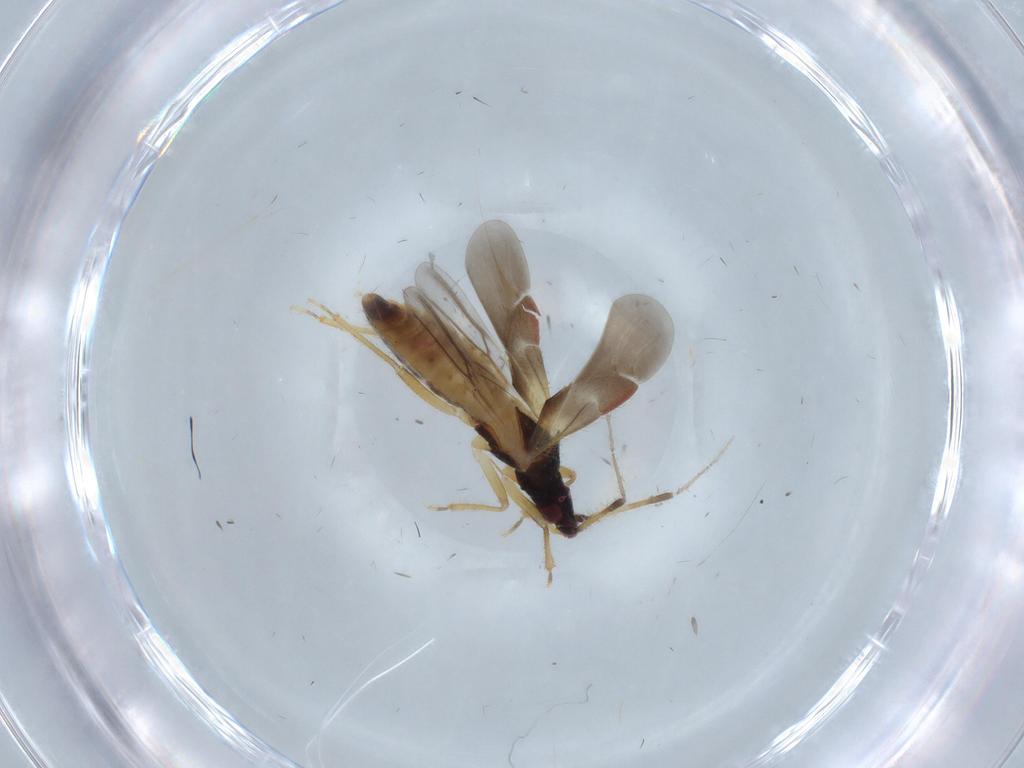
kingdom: Animalia
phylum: Arthropoda
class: Insecta
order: Hemiptera
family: Lasiochilidae
